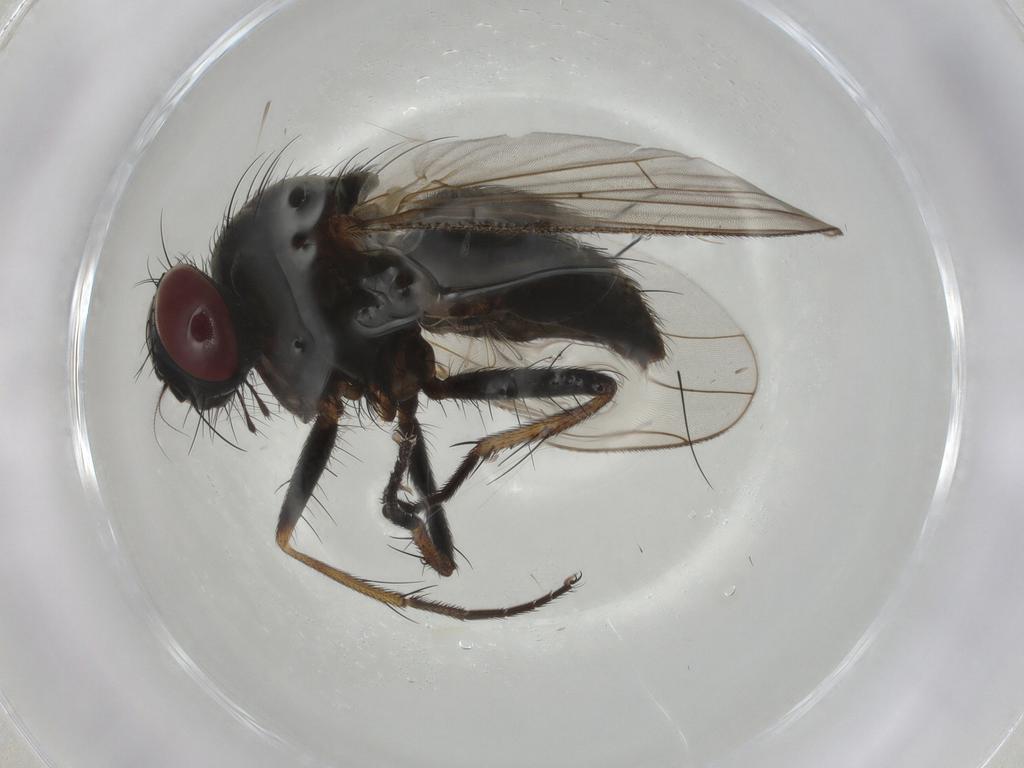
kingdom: Animalia
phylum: Arthropoda
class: Insecta
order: Diptera
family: Muscidae
